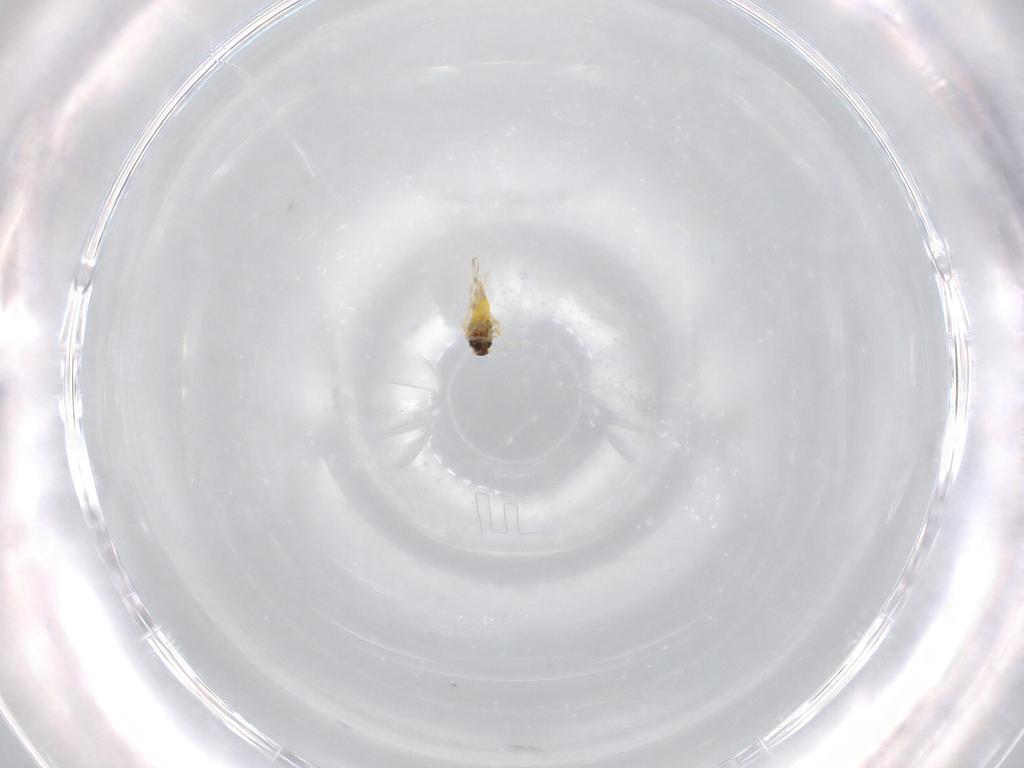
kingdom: Animalia
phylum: Arthropoda
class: Insecta
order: Hemiptera
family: Aleyrodidae
